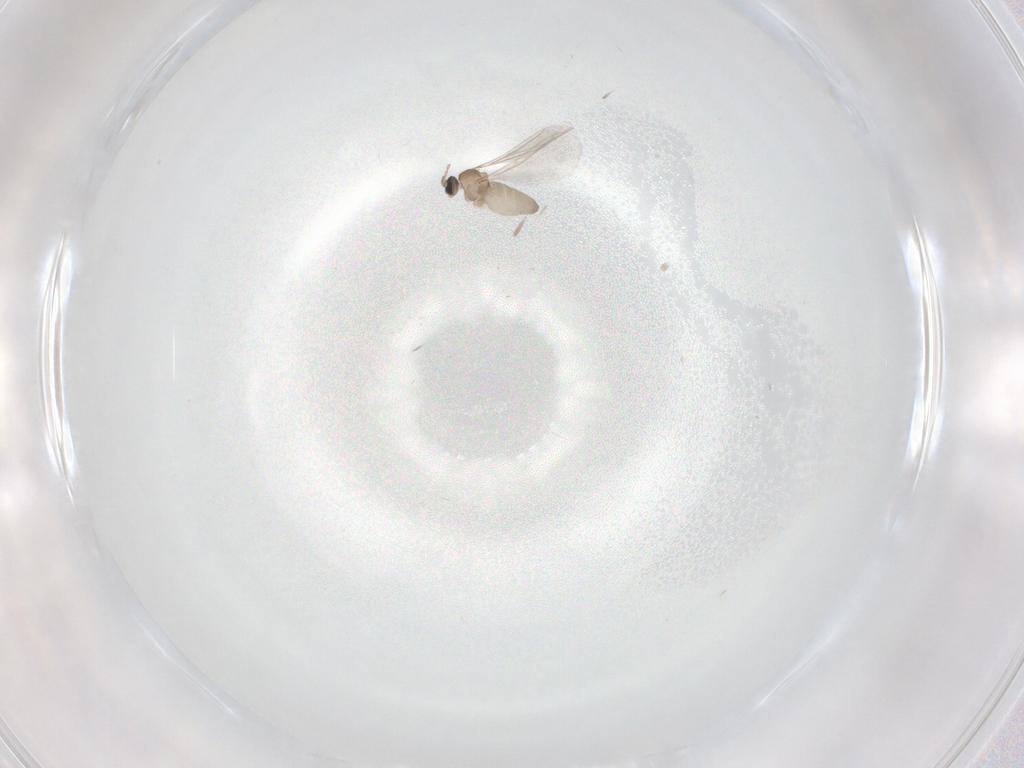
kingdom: Animalia
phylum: Arthropoda
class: Insecta
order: Diptera
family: Cecidomyiidae
